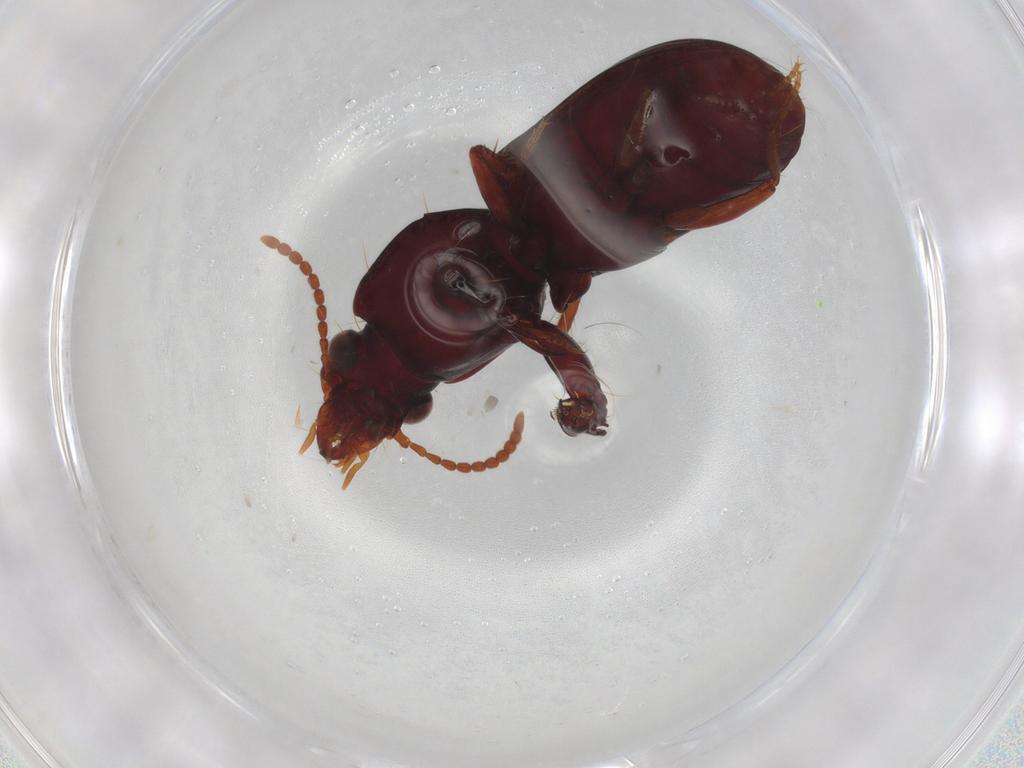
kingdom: Animalia
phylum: Arthropoda
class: Insecta
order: Coleoptera
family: Carabidae
